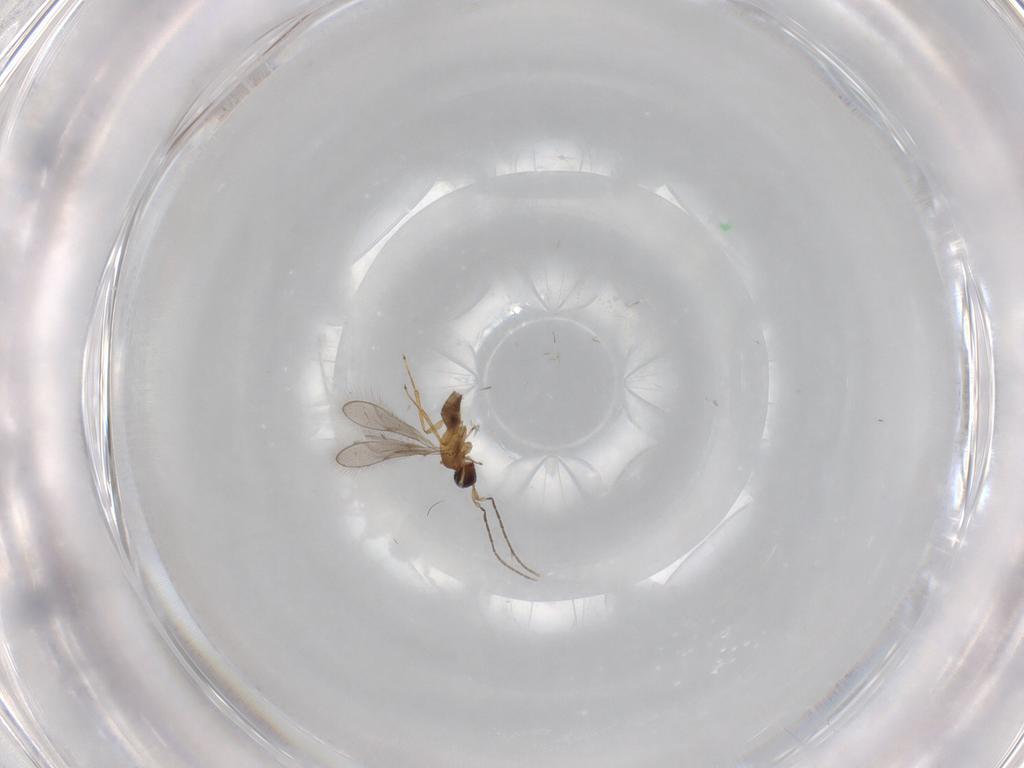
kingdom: Animalia
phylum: Arthropoda
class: Insecta
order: Hymenoptera
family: Mymaridae
